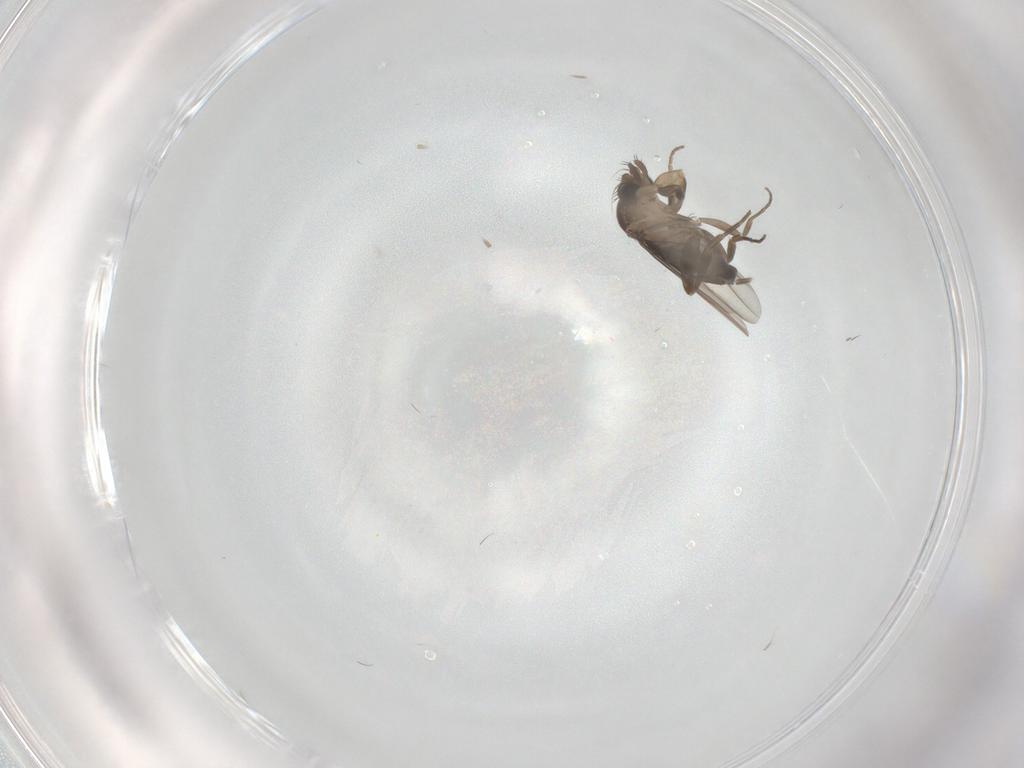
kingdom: Animalia
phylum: Arthropoda
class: Insecta
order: Diptera
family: Phoridae
